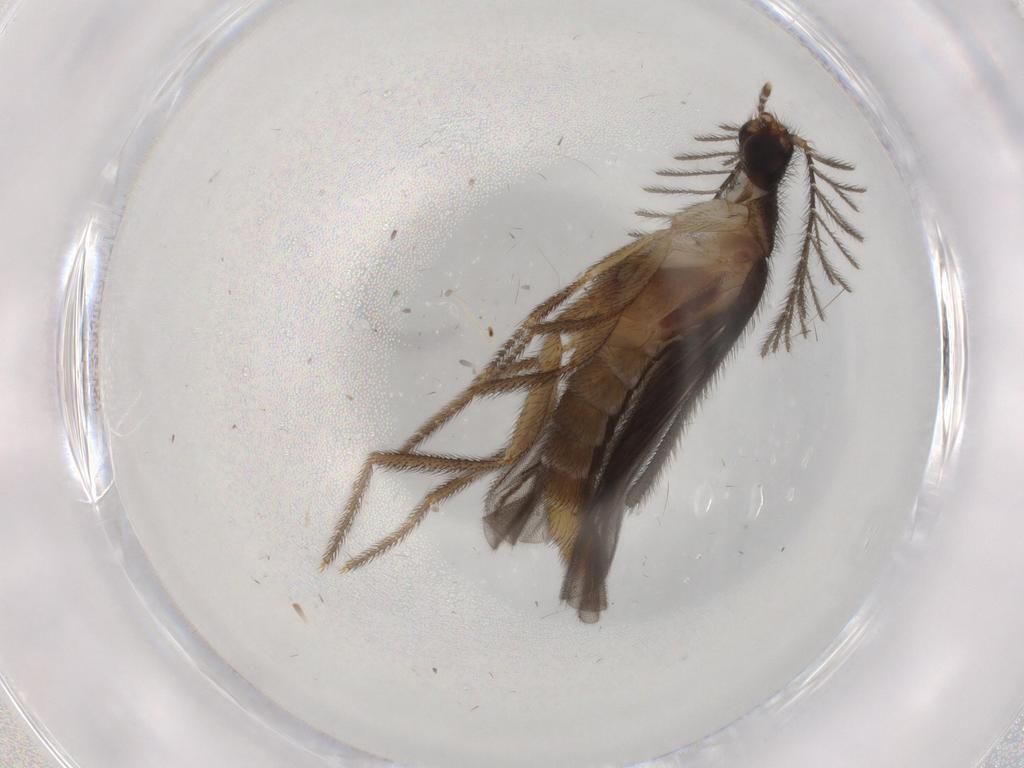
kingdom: Animalia
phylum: Arthropoda
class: Insecta
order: Coleoptera
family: Phengodidae
